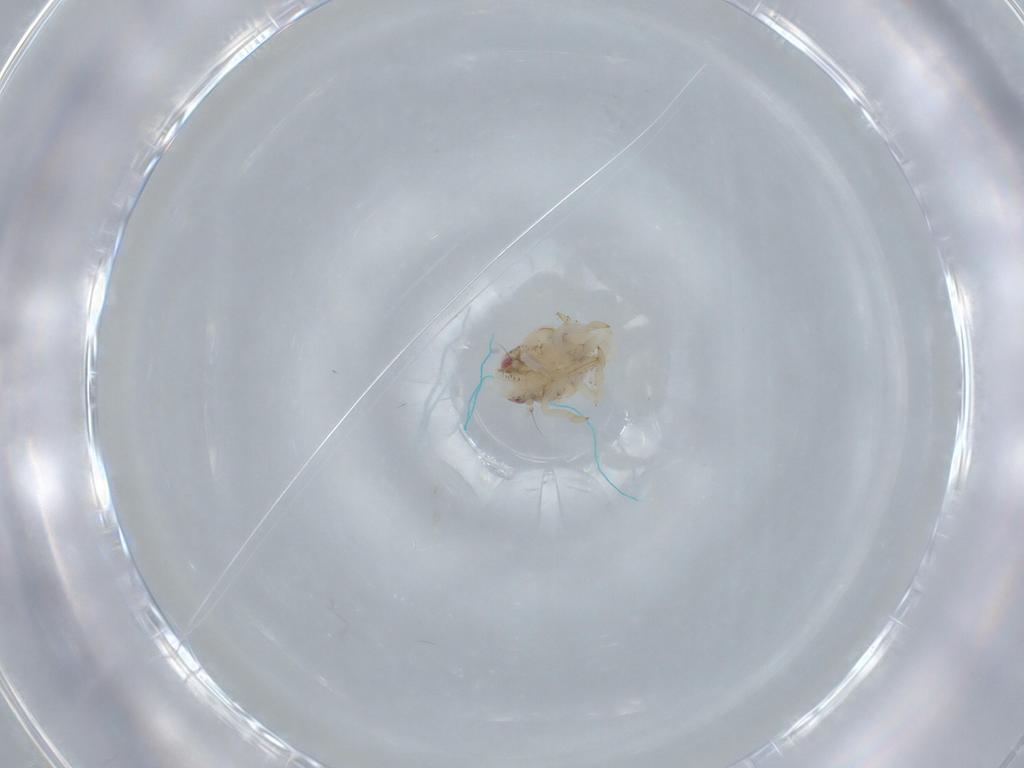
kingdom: Animalia
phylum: Arthropoda
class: Insecta
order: Hemiptera
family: Acanaloniidae
